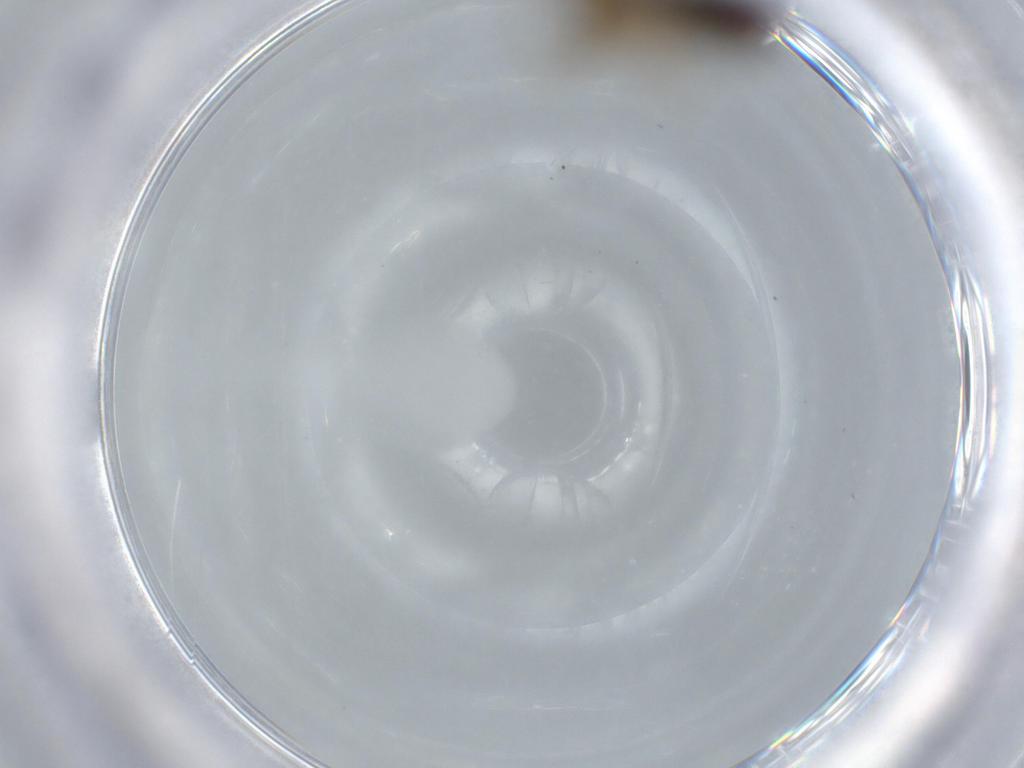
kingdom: Animalia
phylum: Arthropoda
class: Insecta
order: Diptera
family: Dolichopodidae
